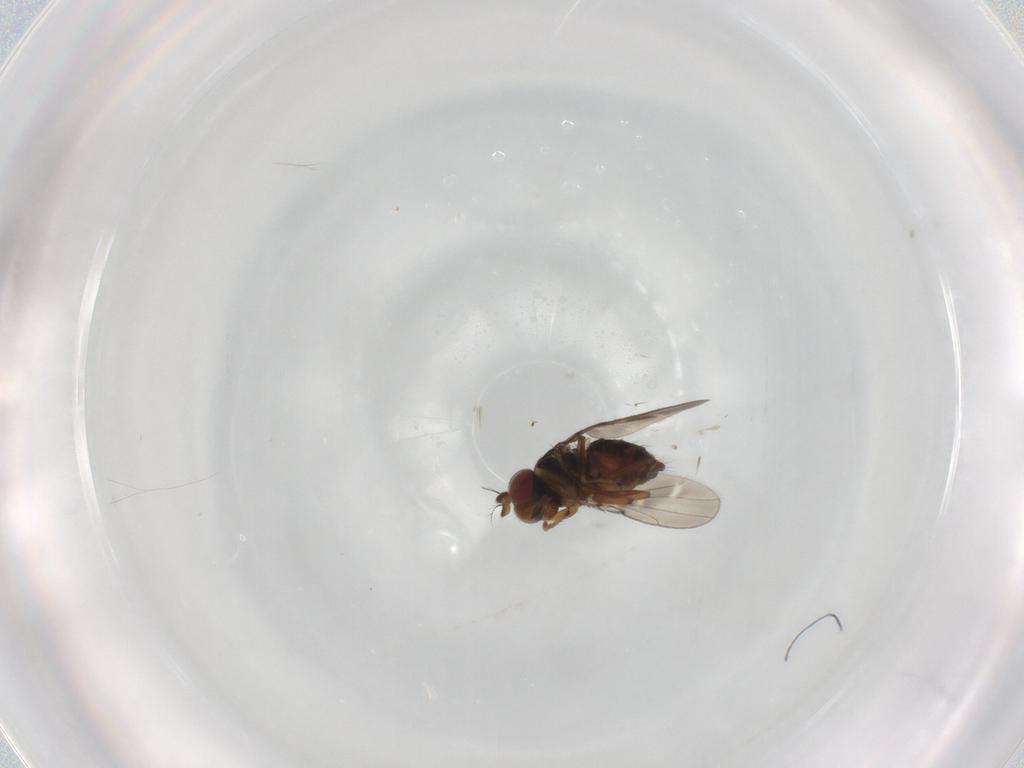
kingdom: Animalia
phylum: Arthropoda
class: Insecta
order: Diptera
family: Ephydridae
